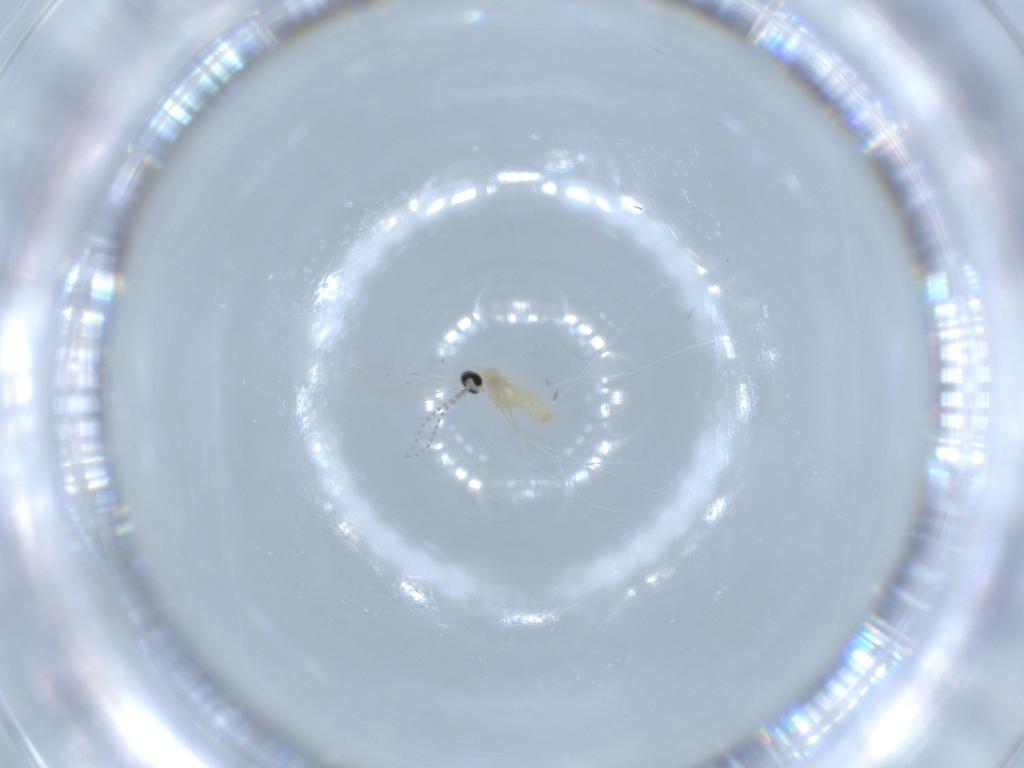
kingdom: Animalia
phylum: Arthropoda
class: Insecta
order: Diptera
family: Cecidomyiidae
